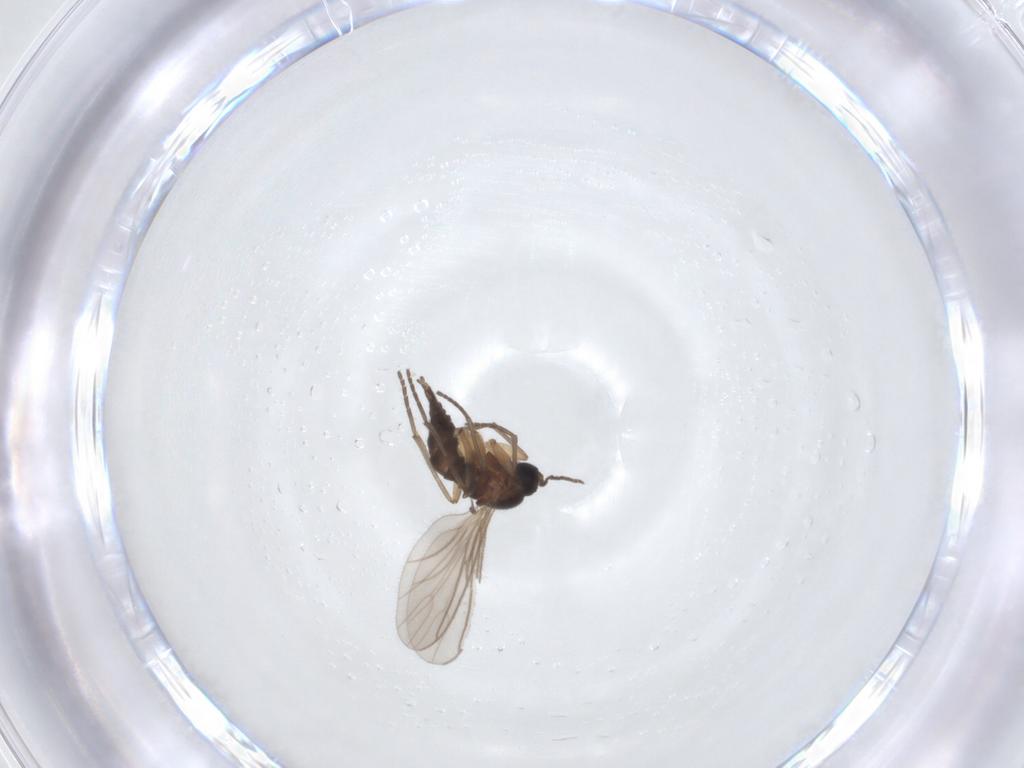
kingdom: Animalia
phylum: Arthropoda
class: Insecta
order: Diptera
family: Sciaridae
